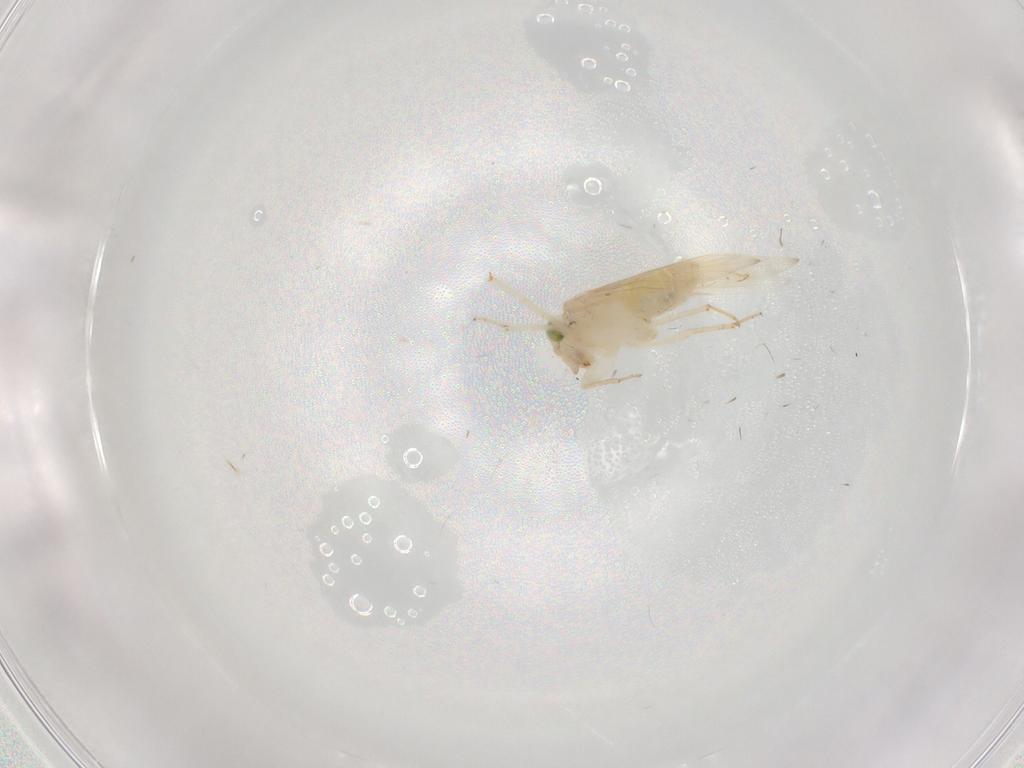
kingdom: Animalia
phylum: Arthropoda
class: Insecta
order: Psocodea
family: Lepidopsocidae
